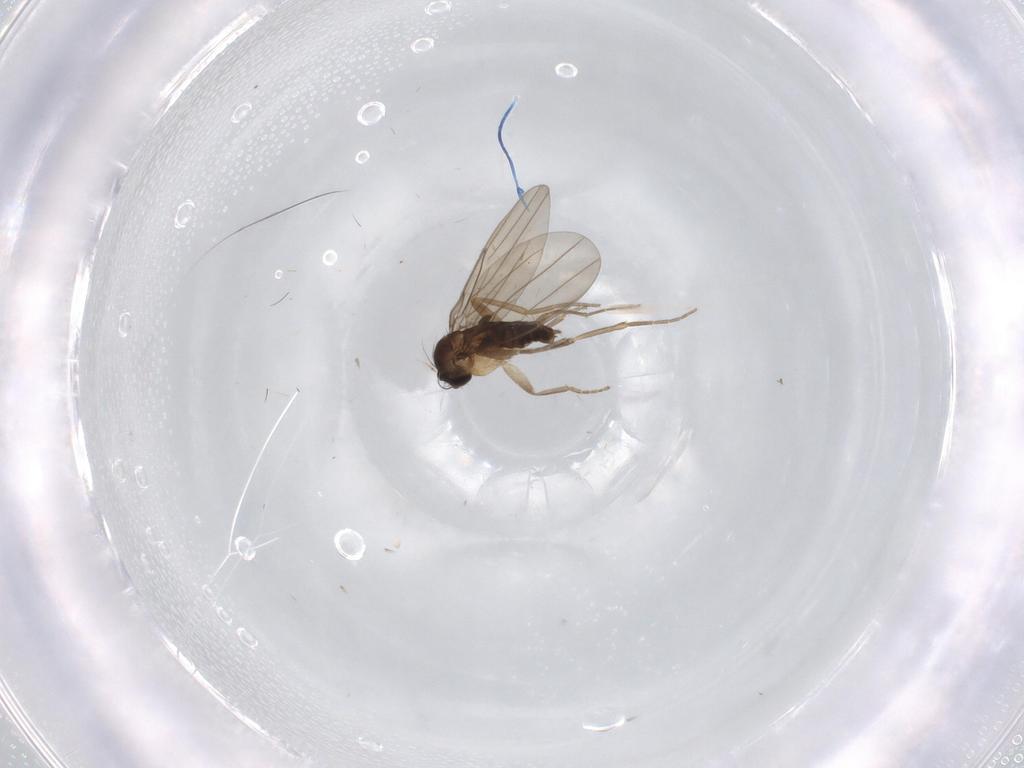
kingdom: Animalia
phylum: Arthropoda
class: Insecta
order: Diptera
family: Phoridae
